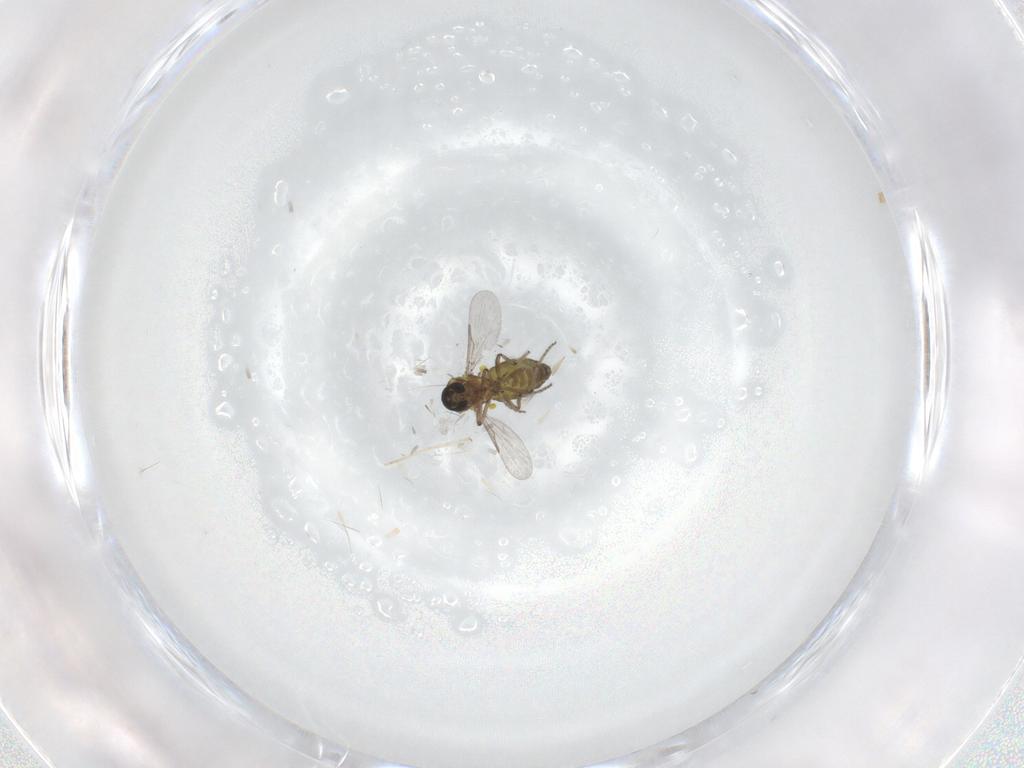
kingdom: Animalia
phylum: Arthropoda
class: Insecta
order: Diptera
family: Cecidomyiidae
